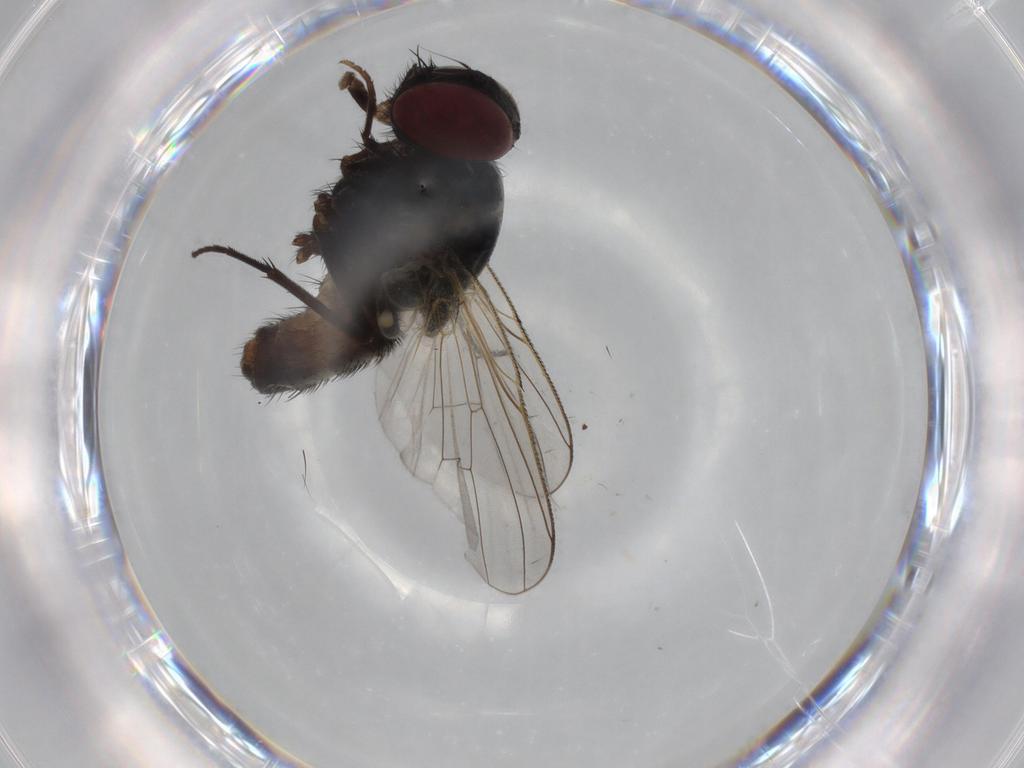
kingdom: Animalia
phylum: Arthropoda
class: Insecta
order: Diptera
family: Muscidae
